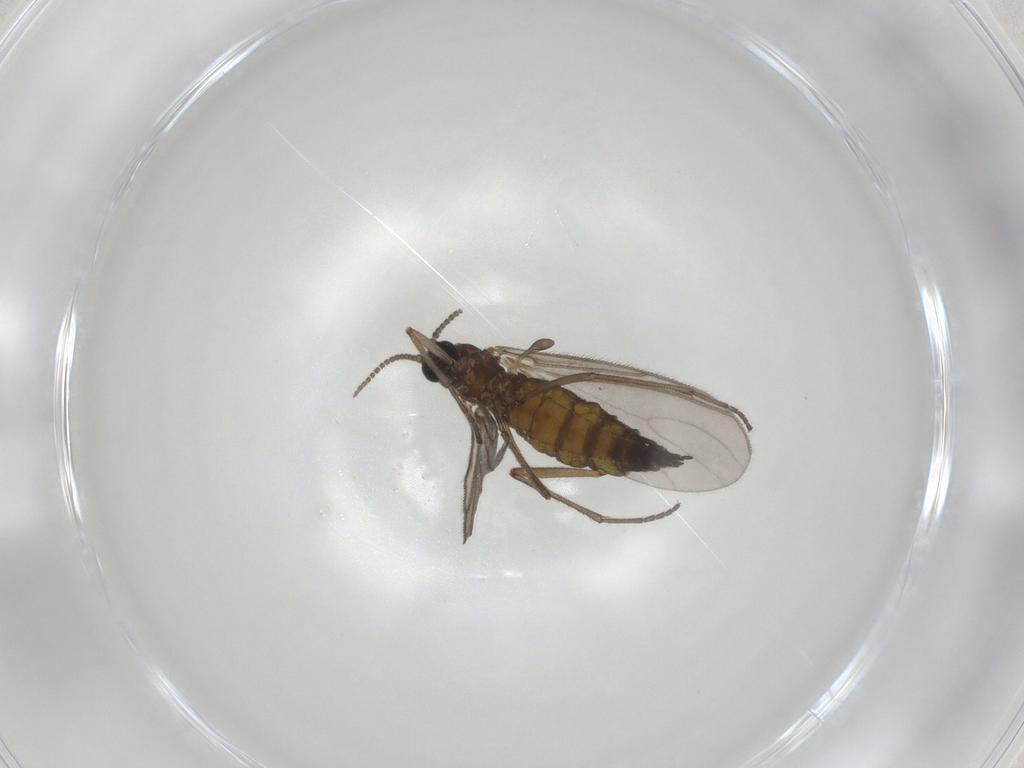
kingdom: Animalia
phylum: Arthropoda
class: Insecta
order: Diptera
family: Sciaridae
